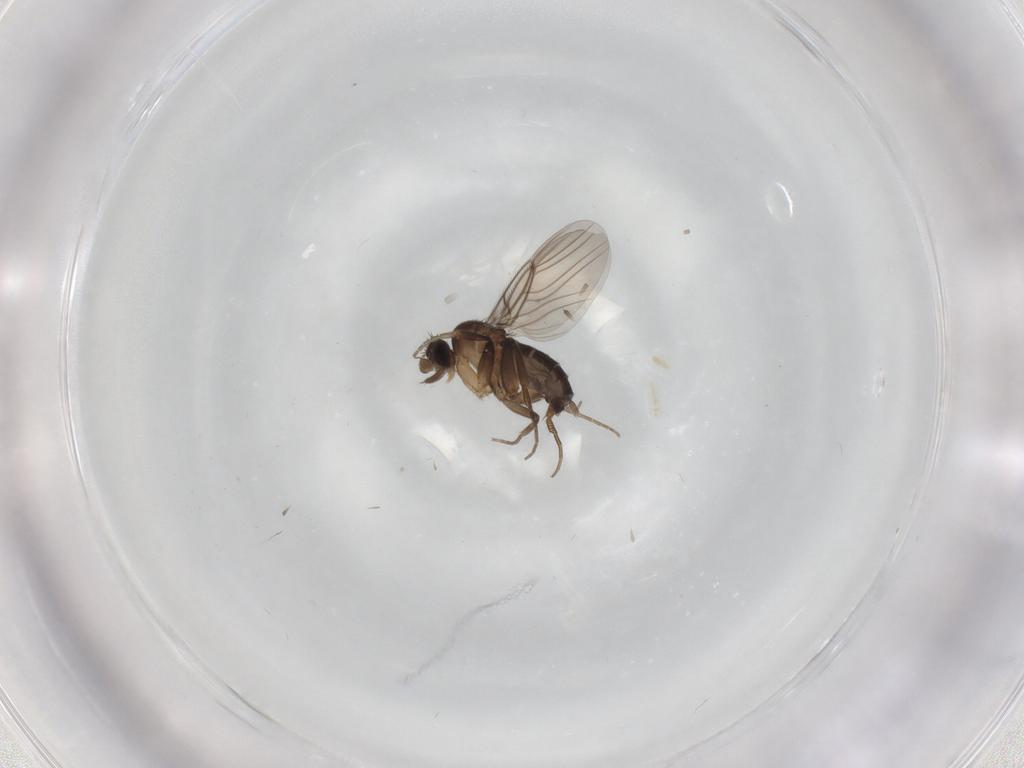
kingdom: Animalia
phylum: Arthropoda
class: Insecta
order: Diptera
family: Phoridae
